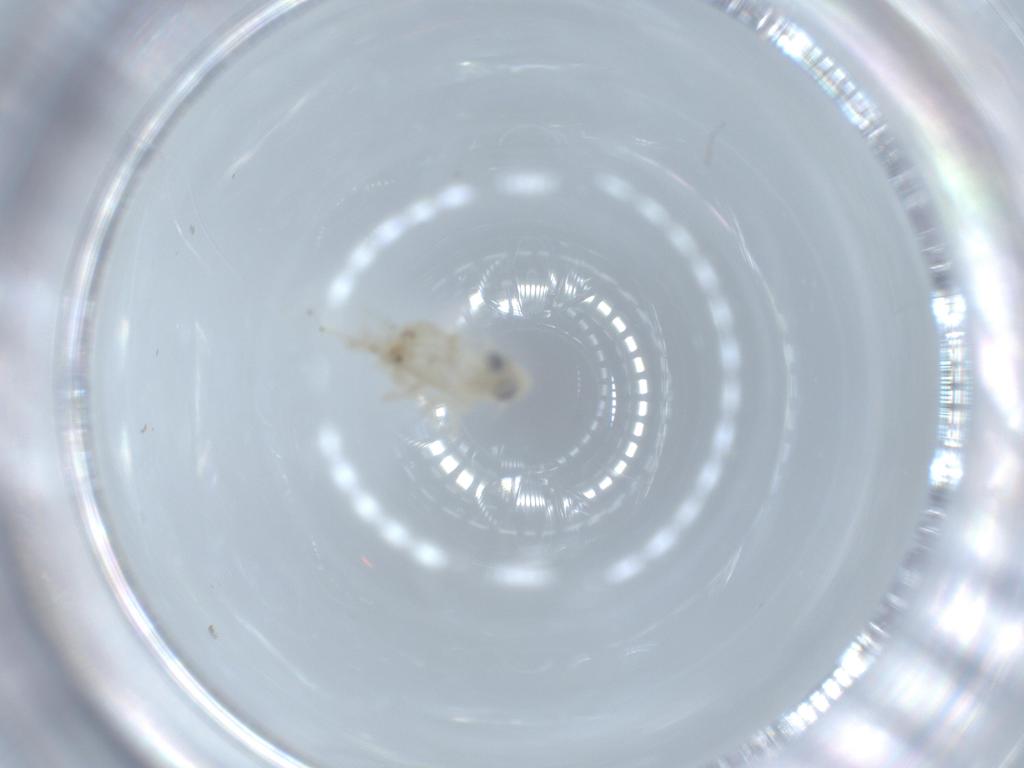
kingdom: Animalia
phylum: Arthropoda
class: Insecta
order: Hemiptera
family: Cicadellidae
